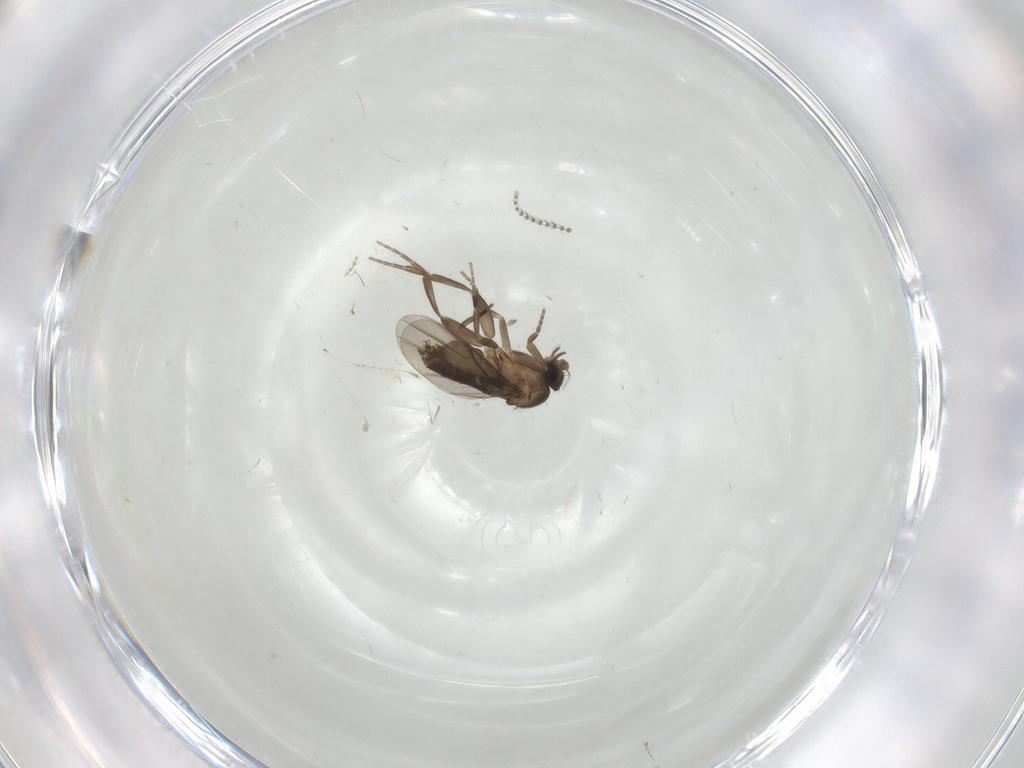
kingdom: Animalia
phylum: Arthropoda
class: Insecta
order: Diptera
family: Phoridae
